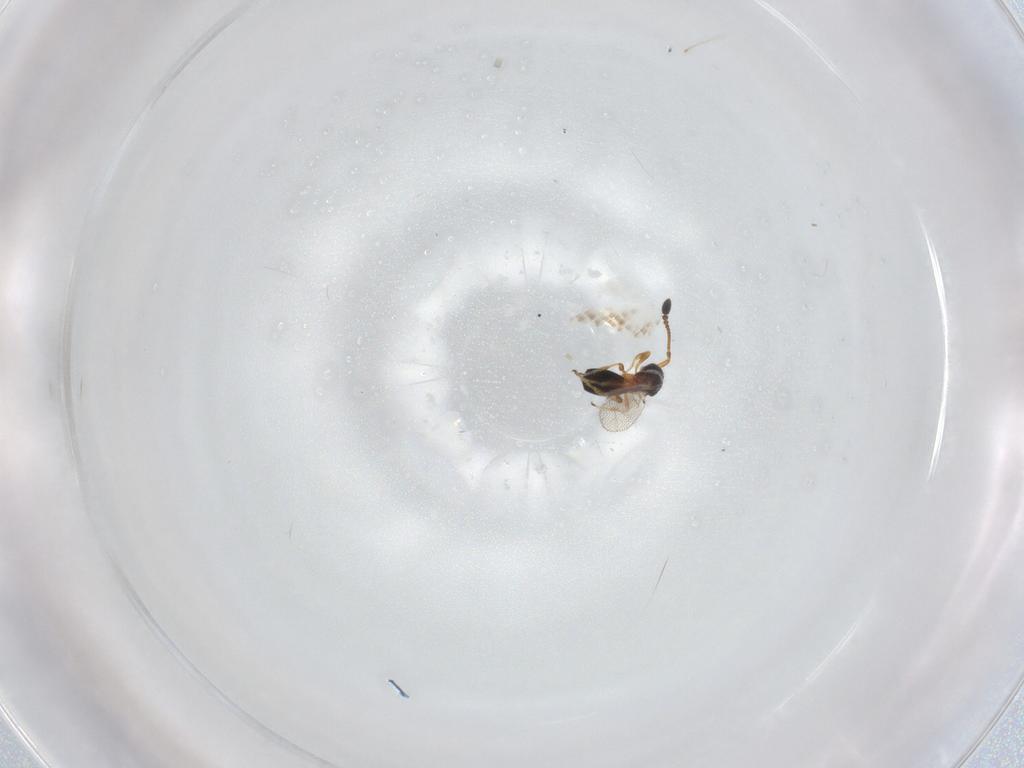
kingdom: Animalia
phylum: Arthropoda
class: Insecta
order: Hymenoptera
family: Diapriidae
